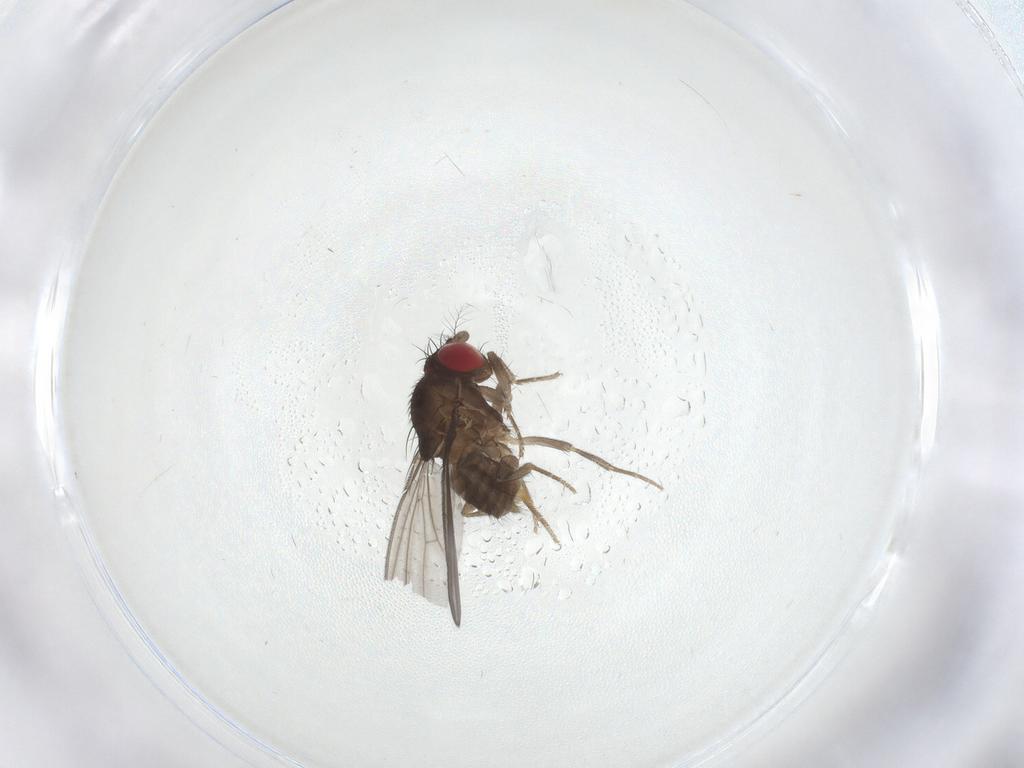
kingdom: Animalia
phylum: Arthropoda
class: Insecta
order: Diptera
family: Drosophilidae
